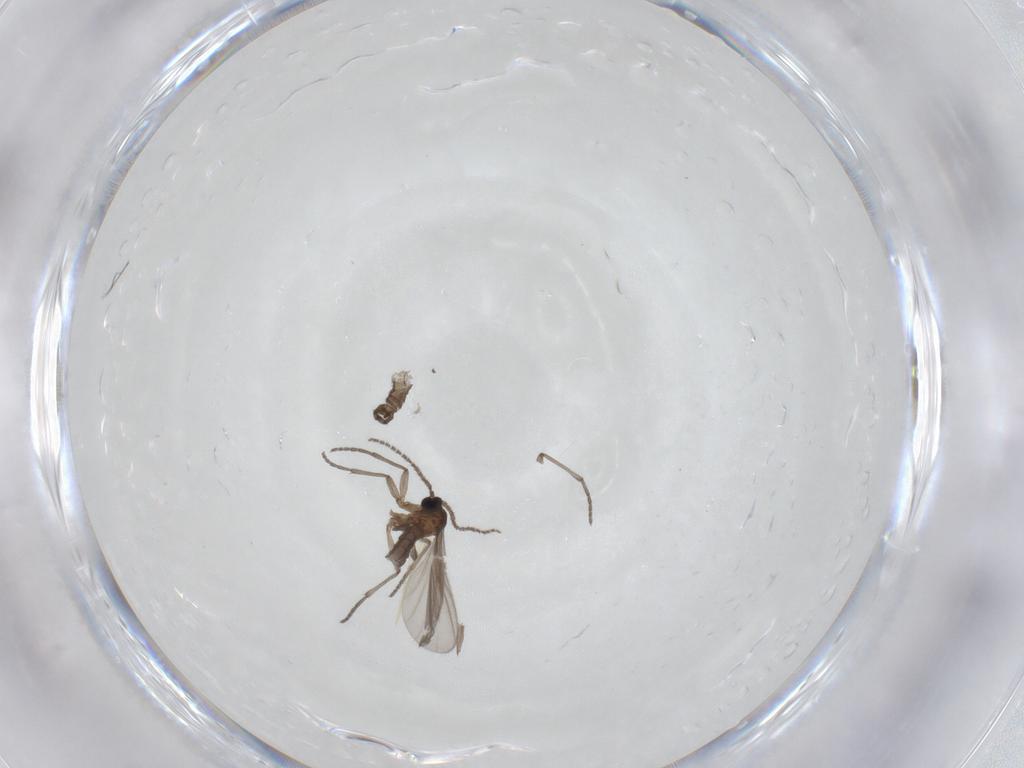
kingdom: Animalia
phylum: Arthropoda
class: Insecta
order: Diptera
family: Sciaridae
